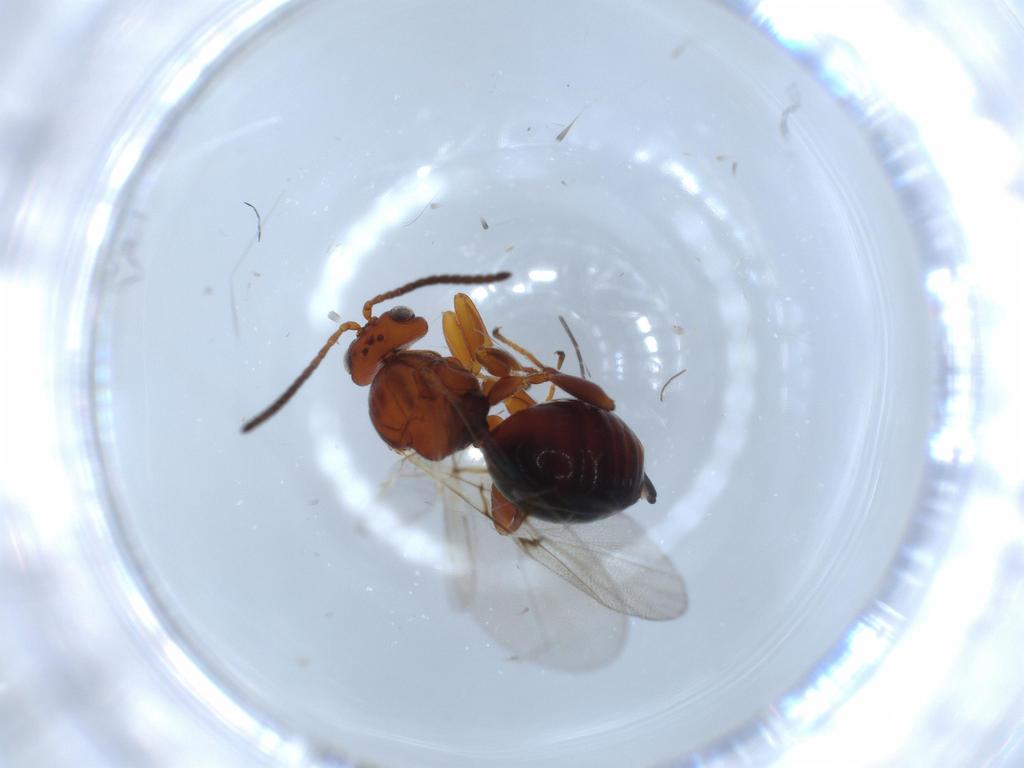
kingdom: Animalia
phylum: Arthropoda
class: Insecta
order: Hymenoptera
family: Cynipidae
